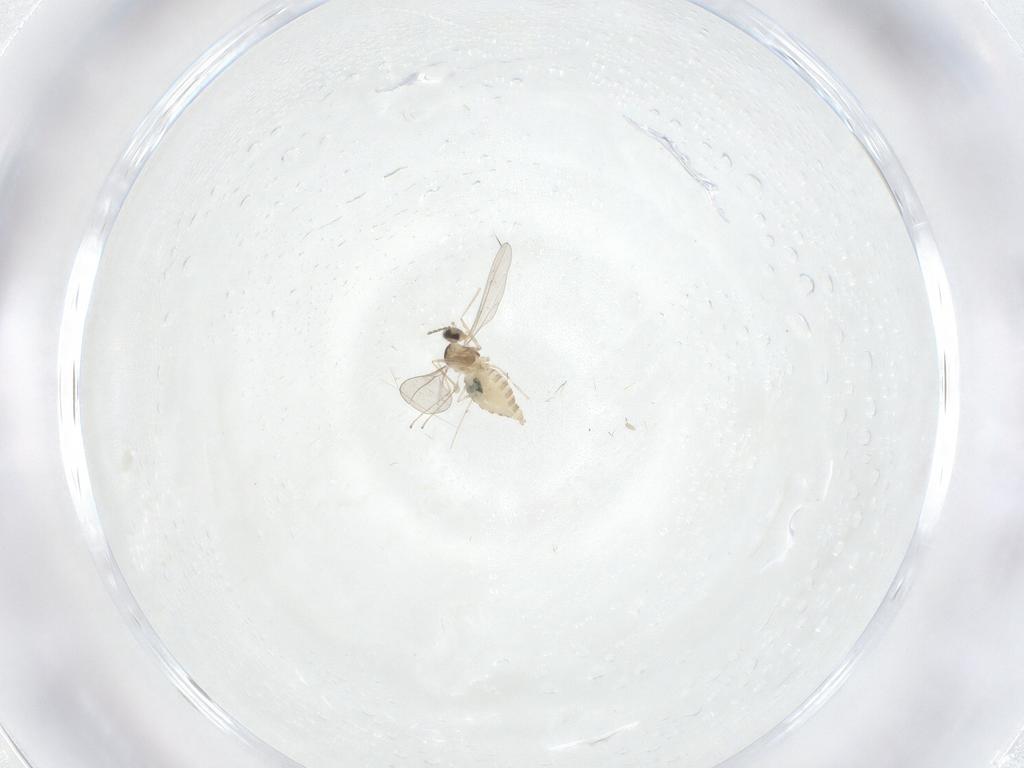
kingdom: Animalia
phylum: Arthropoda
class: Insecta
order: Diptera
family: Cecidomyiidae
